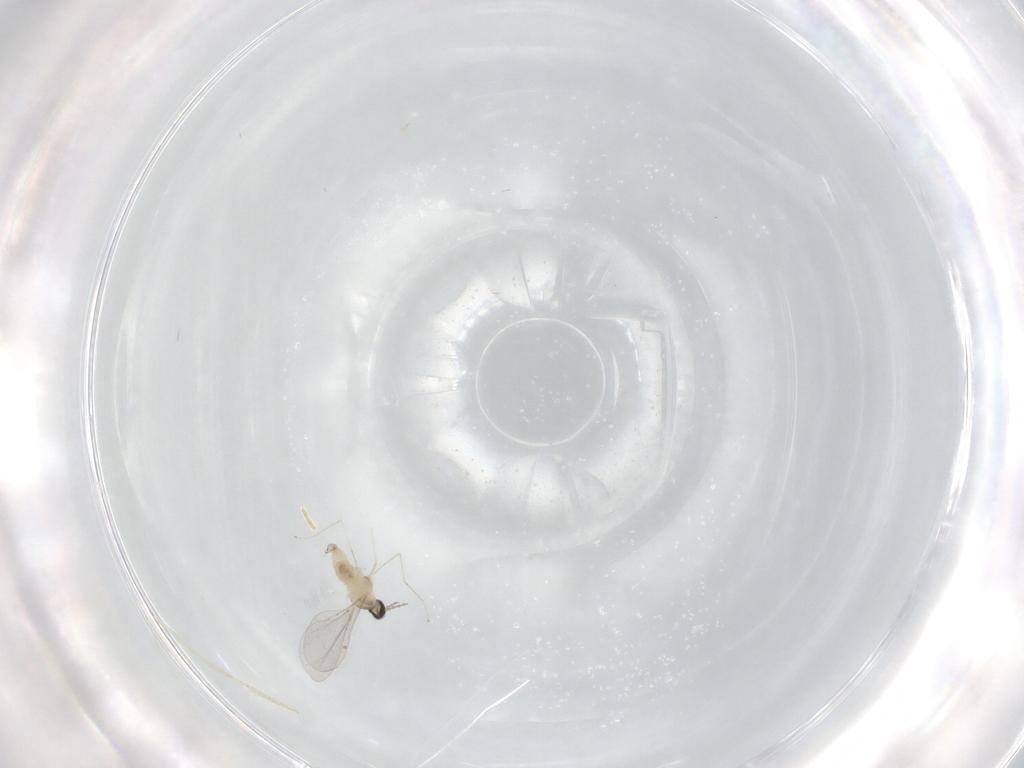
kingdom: Animalia
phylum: Arthropoda
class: Insecta
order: Diptera
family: Cecidomyiidae
